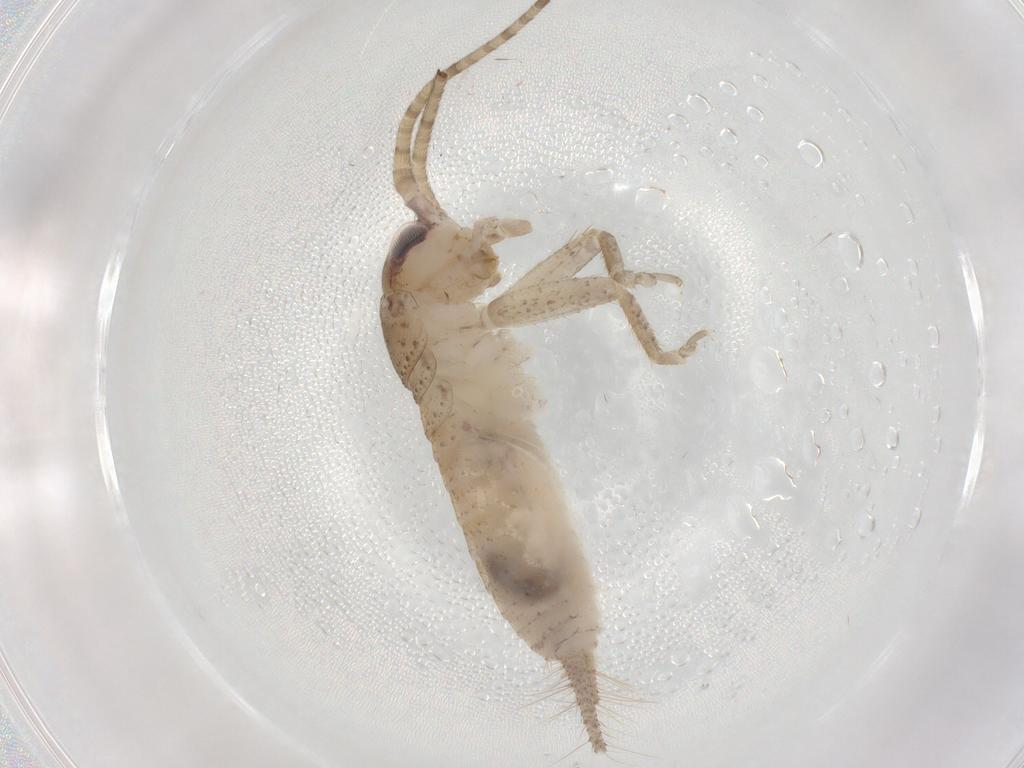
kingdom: Animalia
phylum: Arthropoda
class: Insecta
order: Orthoptera
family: Gryllidae
